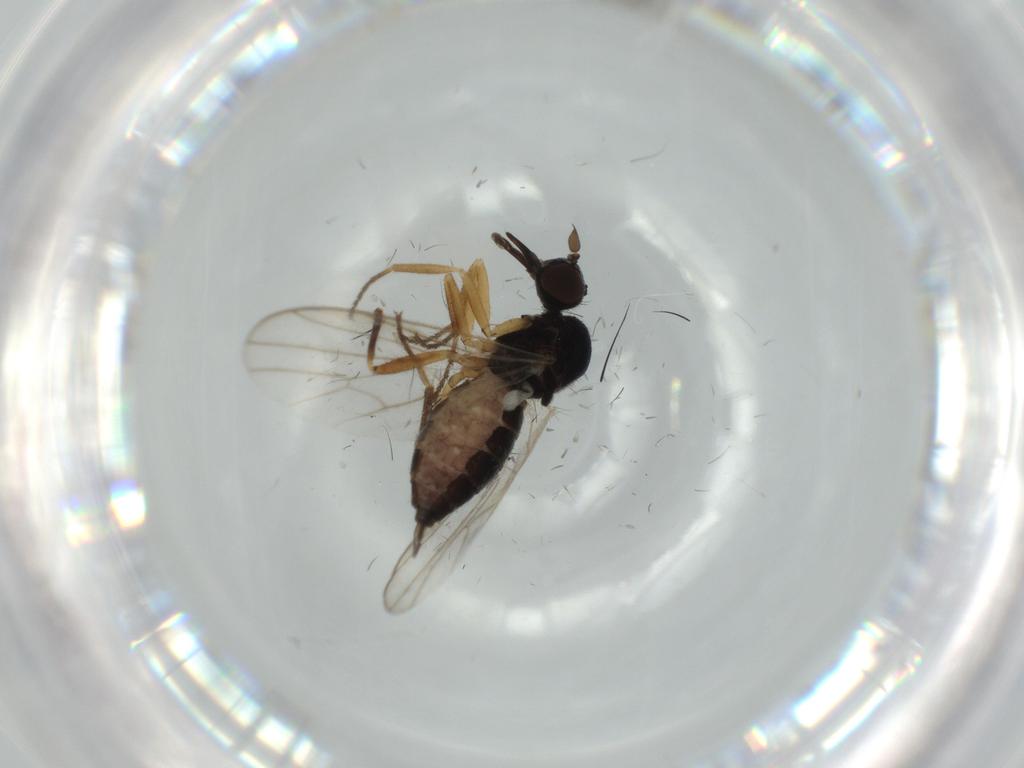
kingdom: Animalia
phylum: Arthropoda
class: Insecta
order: Diptera
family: Hybotidae
